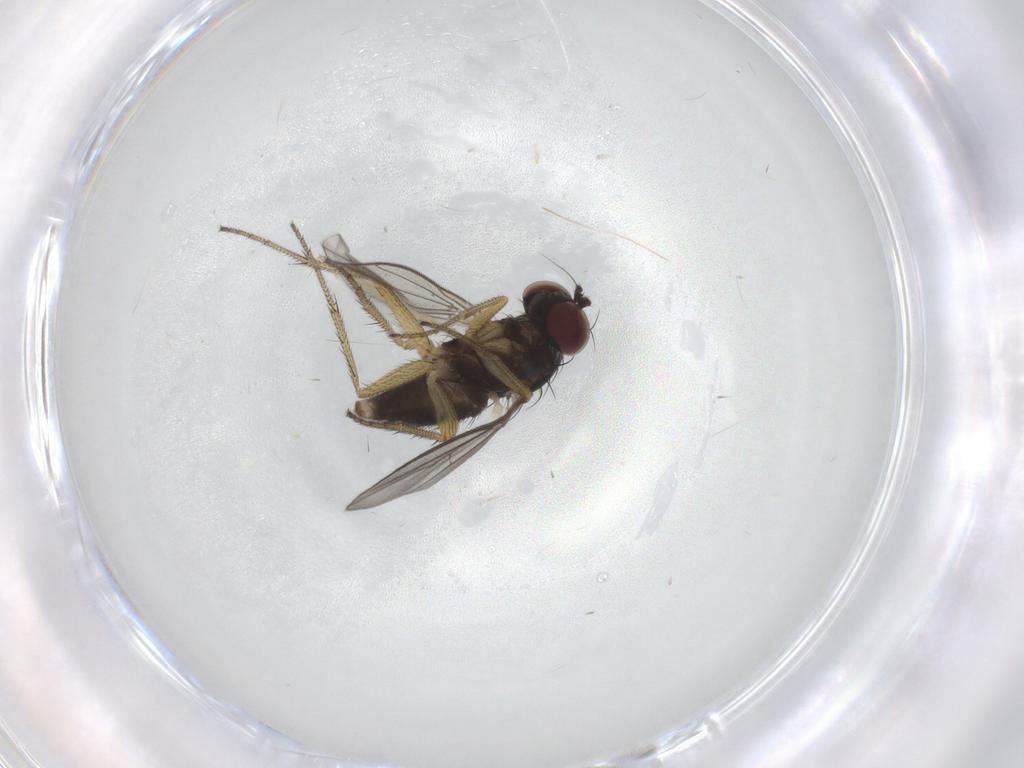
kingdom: Animalia
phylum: Arthropoda
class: Insecta
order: Diptera
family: Dolichopodidae
